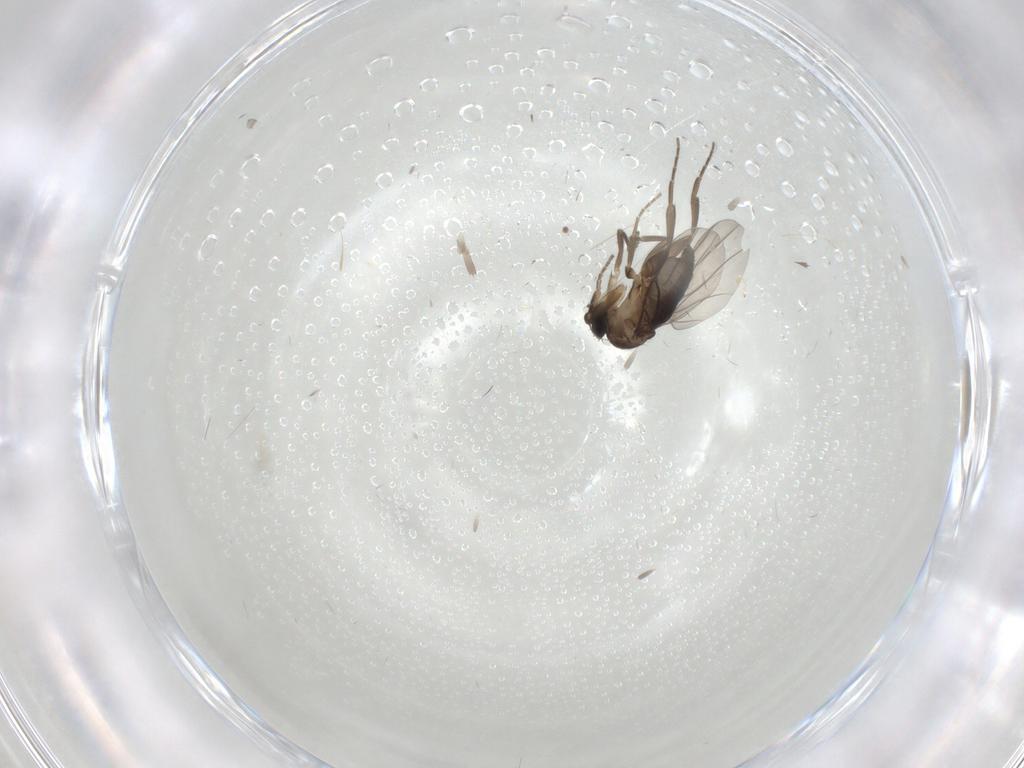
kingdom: Animalia
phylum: Arthropoda
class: Insecta
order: Diptera
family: Phoridae
